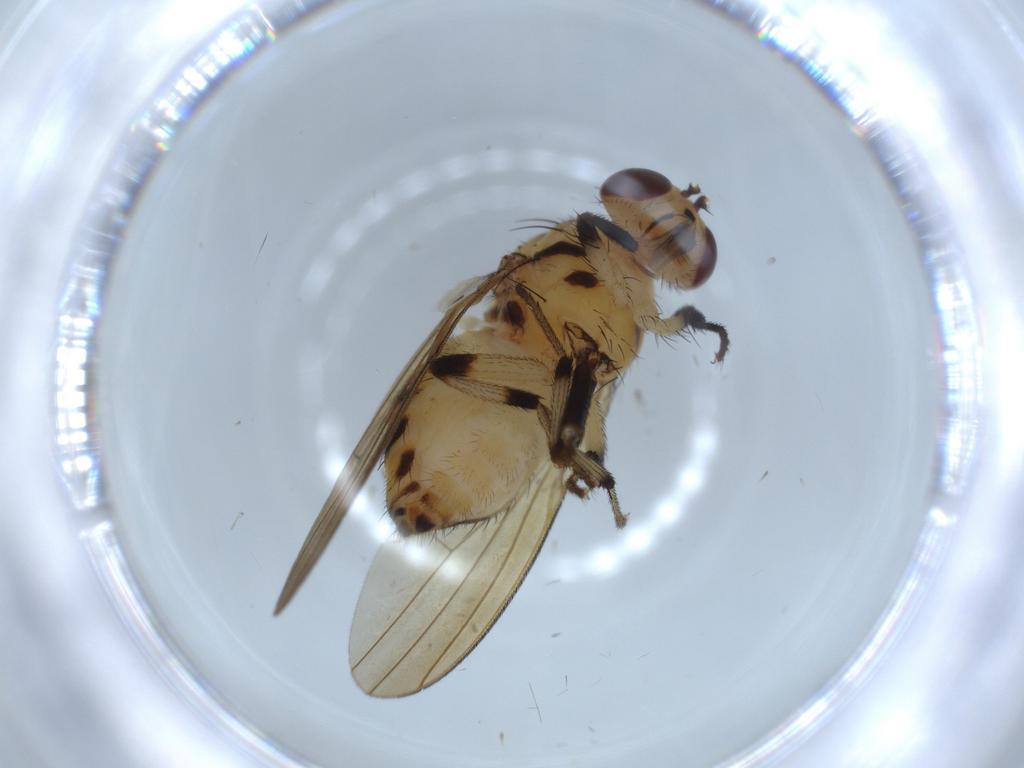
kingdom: Animalia
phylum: Arthropoda
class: Insecta
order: Diptera
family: Lauxaniidae
